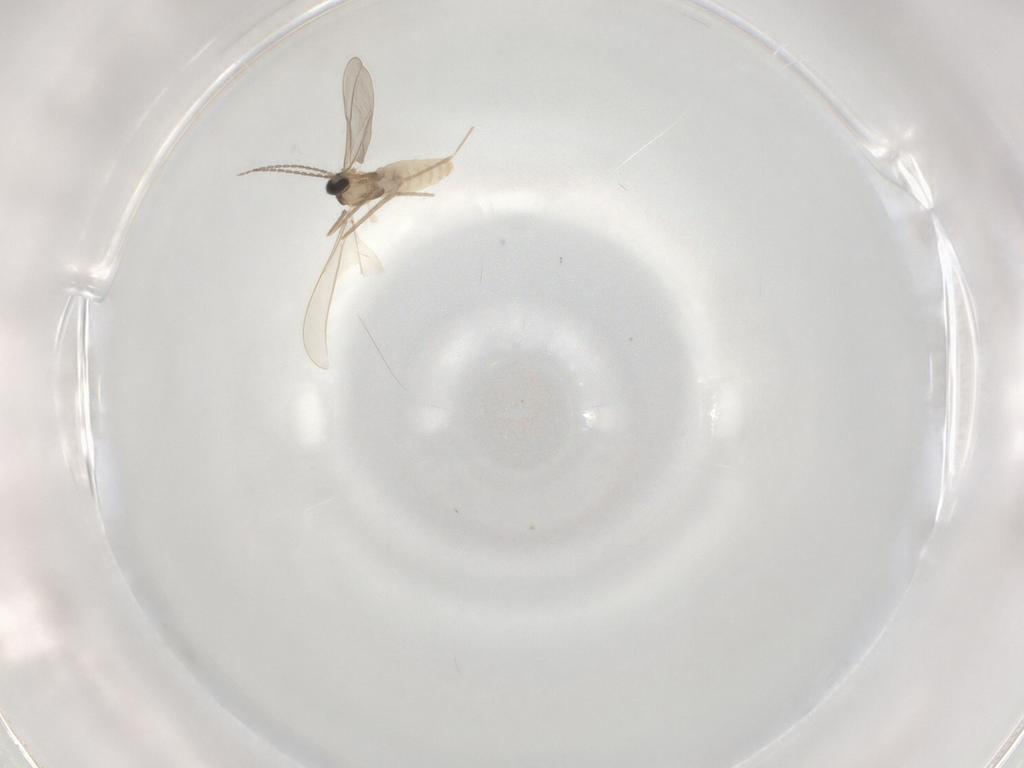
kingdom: Animalia
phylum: Arthropoda
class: Insecta
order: Diptera
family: Cecidomyiidae
